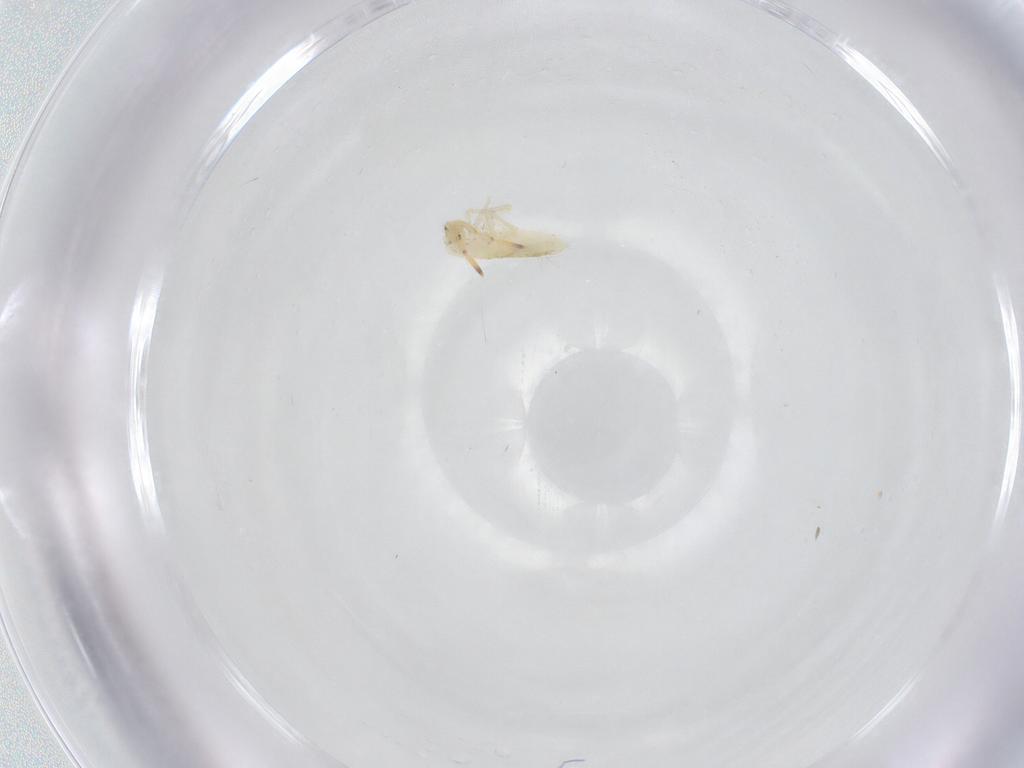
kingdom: Animalia
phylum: Arthropoda
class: Collembola
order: Entomobryomorpha
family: Entomobryidae
